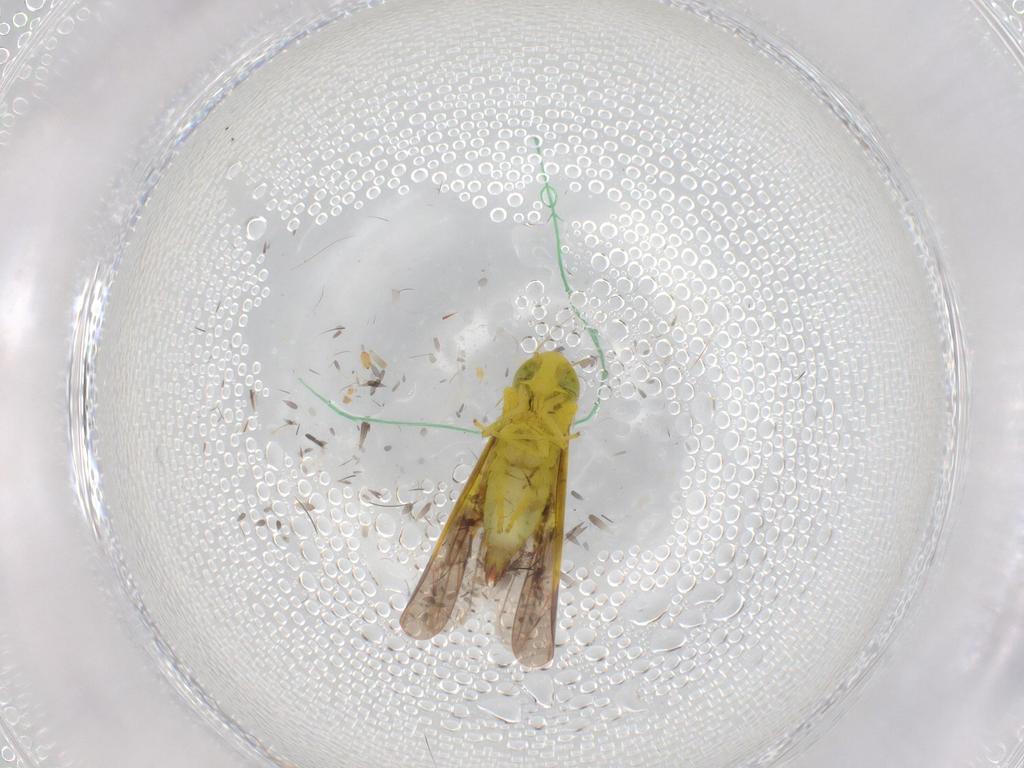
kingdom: Animalia
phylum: Arthropoda
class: Insecta
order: Hemiptera
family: Cicadellidae
